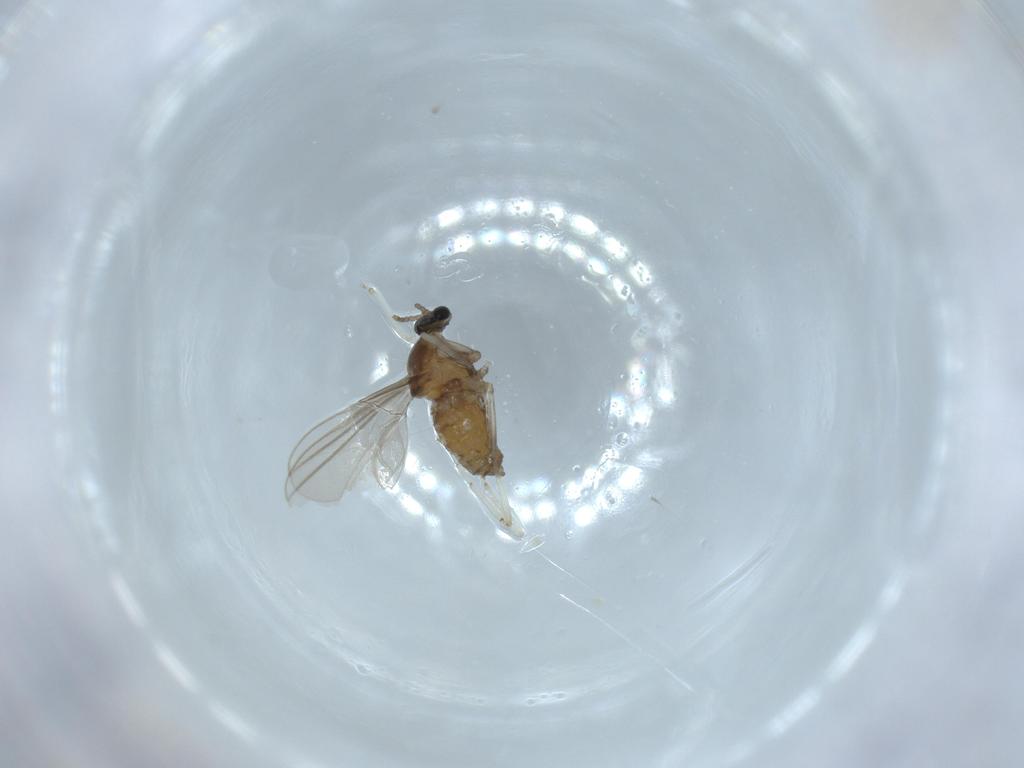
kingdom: Animalia
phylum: Arthropoda
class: Insecta
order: Diptera
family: Cecidomyiidae
